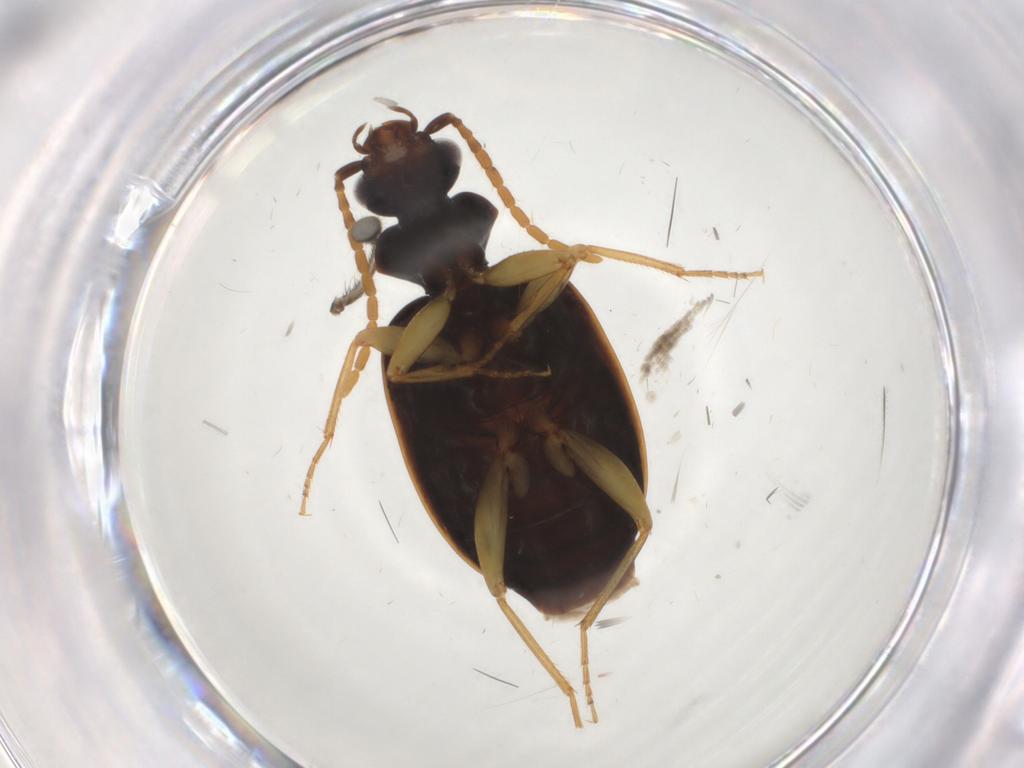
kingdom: Animalia
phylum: Arthropoda
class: Insecta
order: Coleoptera
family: Carabidae
